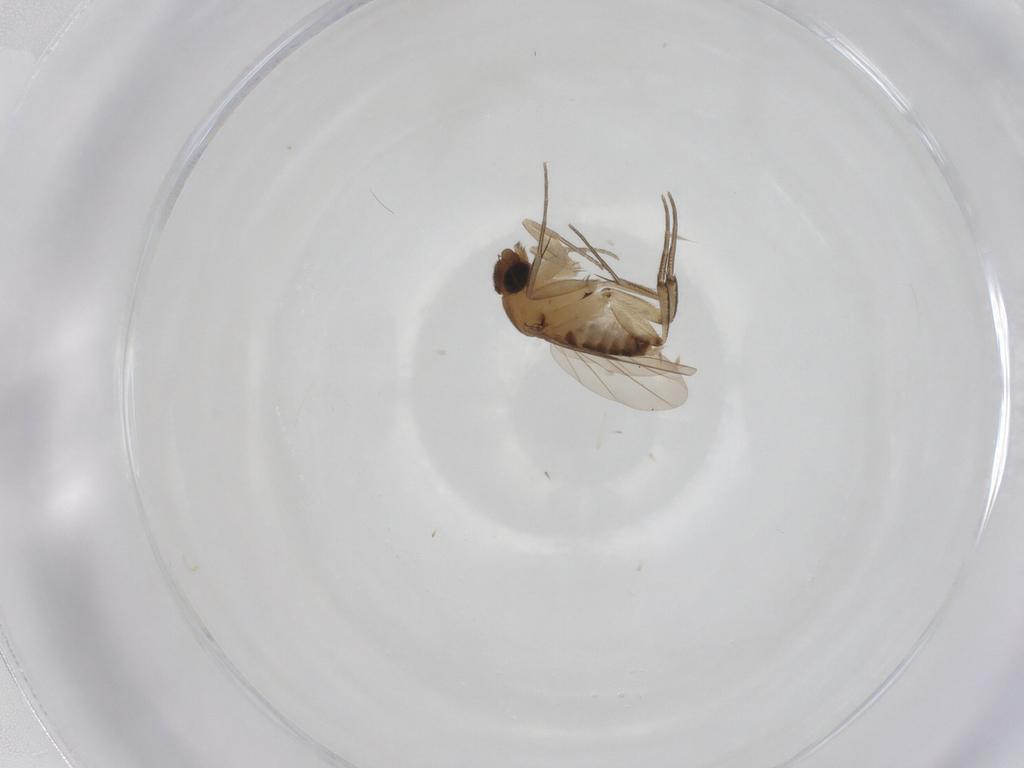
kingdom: Animalia
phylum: Arthropoda
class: Insecta
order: Diptera
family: Phoridae
